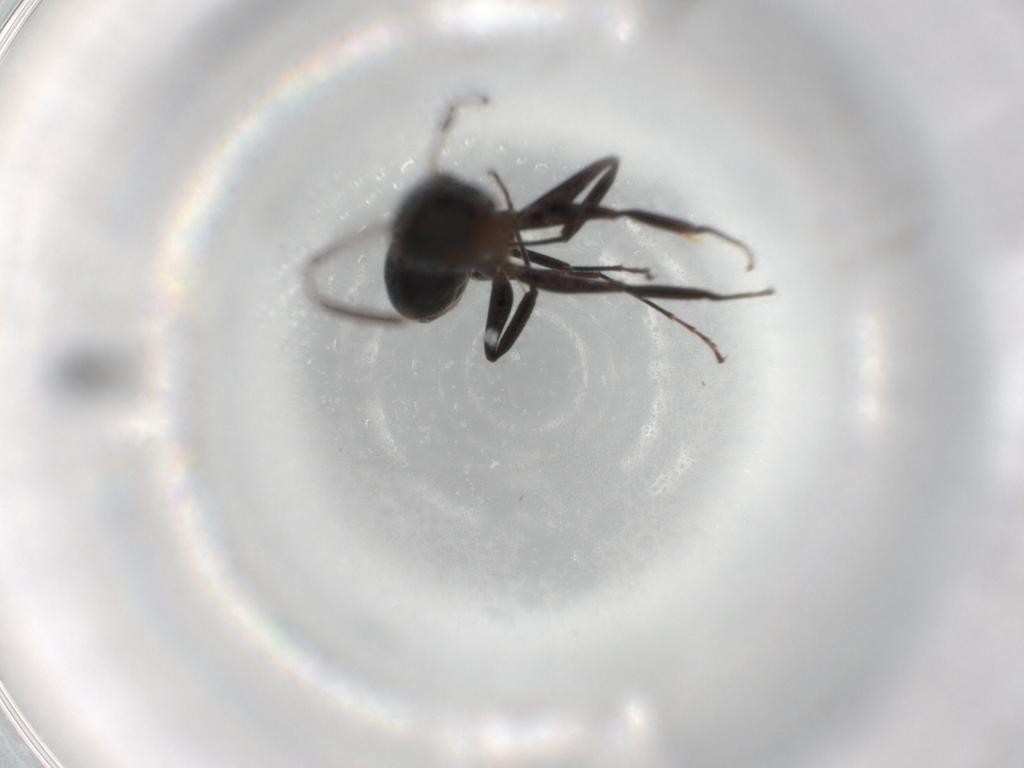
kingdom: Animalia
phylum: Arthropoda
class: Insecta
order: Hymenoptera
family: Formicidae
